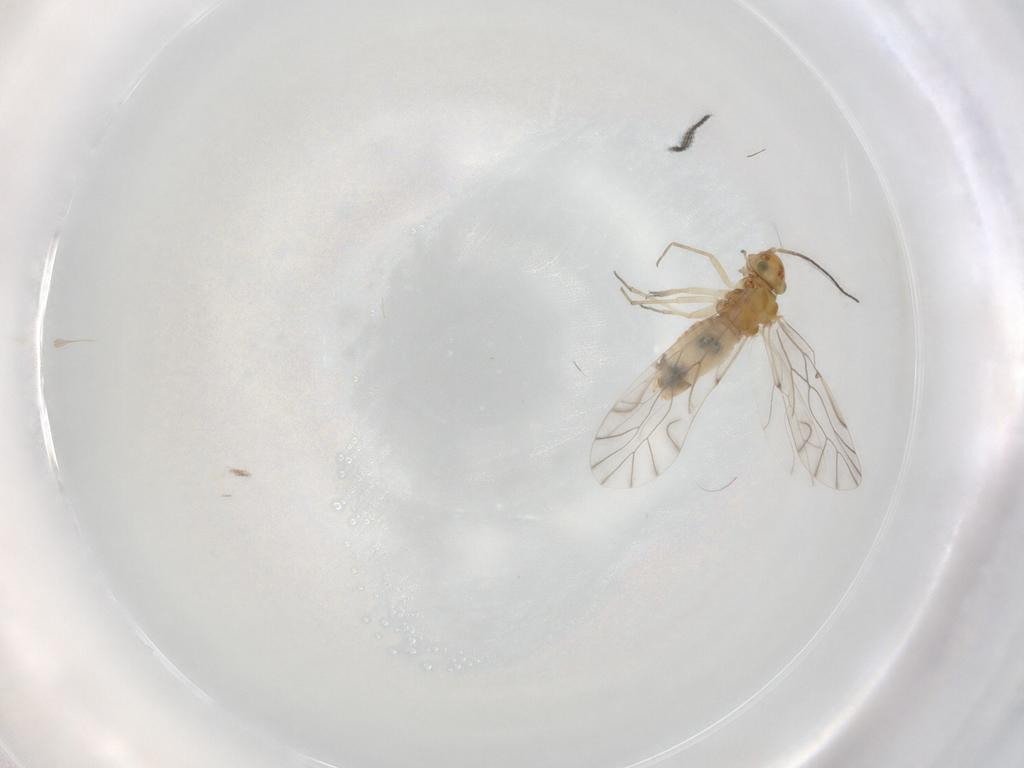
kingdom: Animalia
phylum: Arthropoda
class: Insecta
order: Psocodea
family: Lachesillidae
